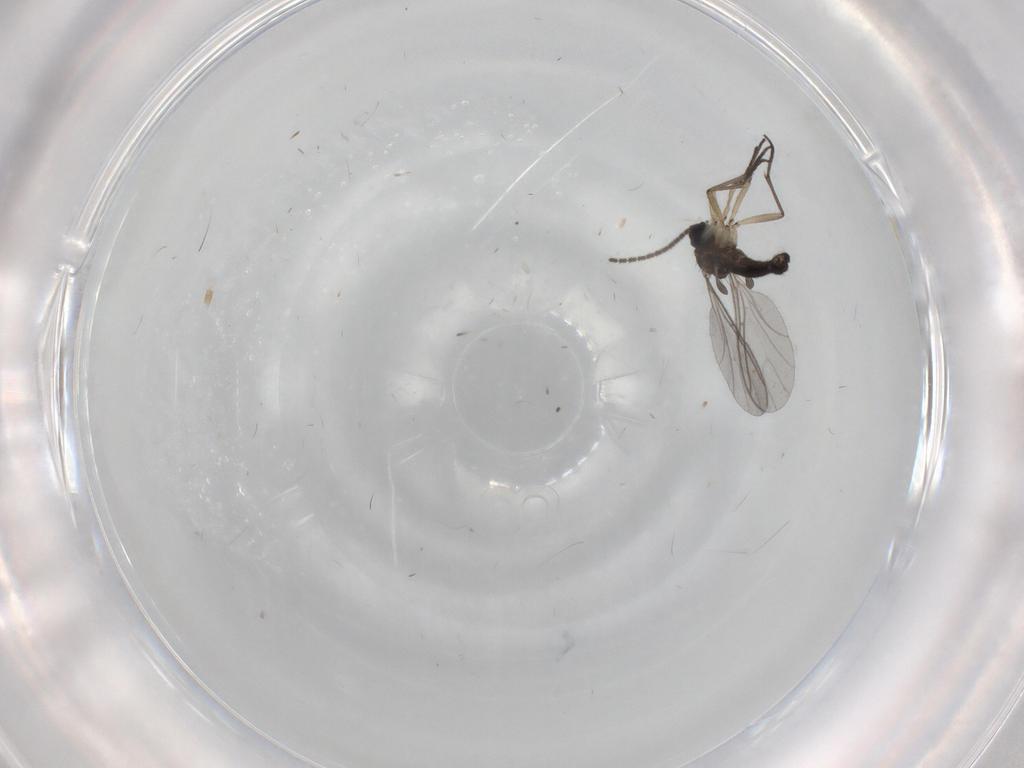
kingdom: Animalia
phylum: Arthropoda
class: Insecta
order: Diptera
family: Sciaridae
